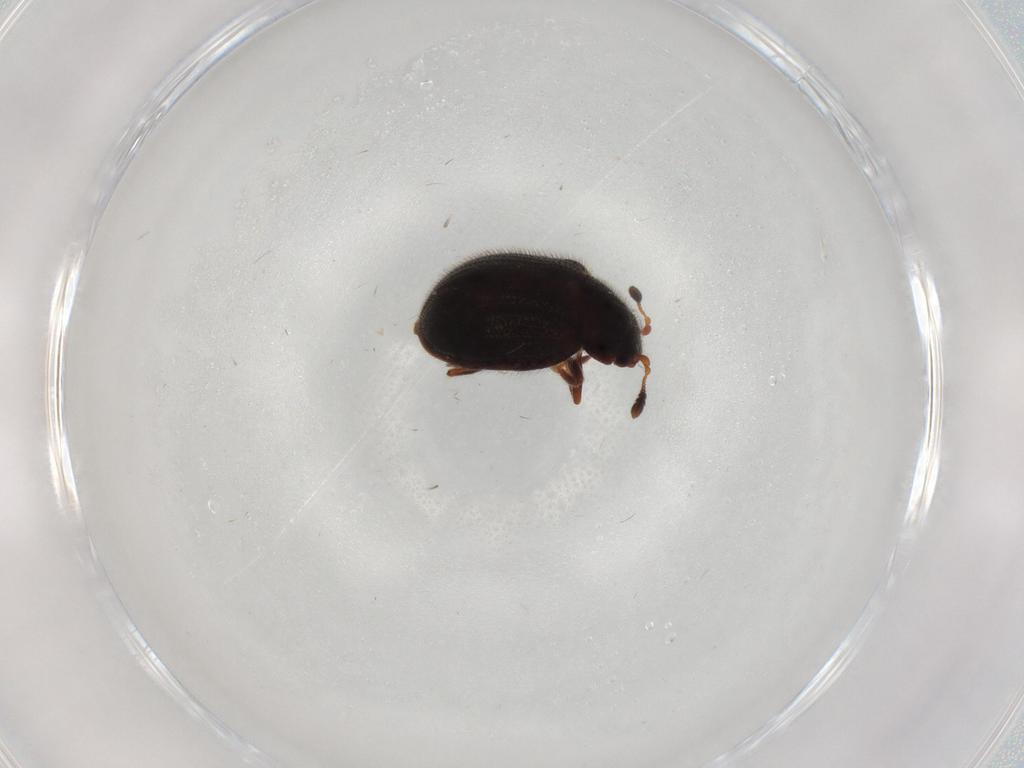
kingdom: Animalia
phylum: Arthropoda
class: Insecta
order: Coleoptera
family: Sphindidae
